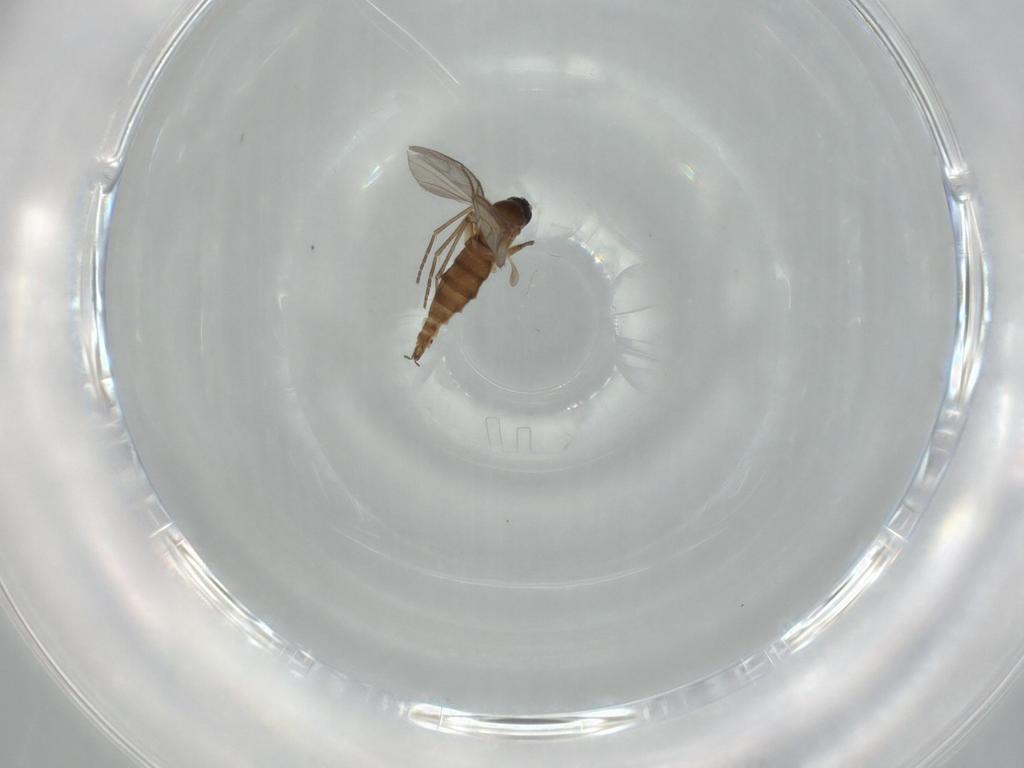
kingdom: Animalia
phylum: Arthropoda
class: Insecta
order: Diptera
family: Sciaridae
